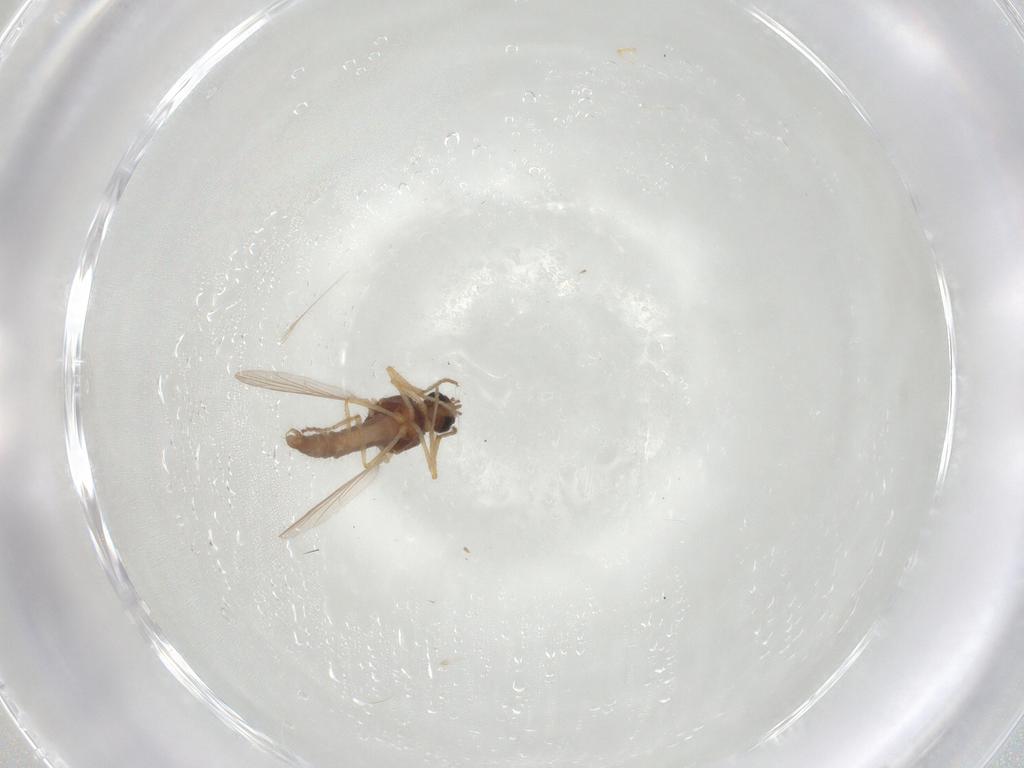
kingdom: Animalia
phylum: Arthropoda
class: Insecta
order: Diptera
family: Ceratopogonidae
